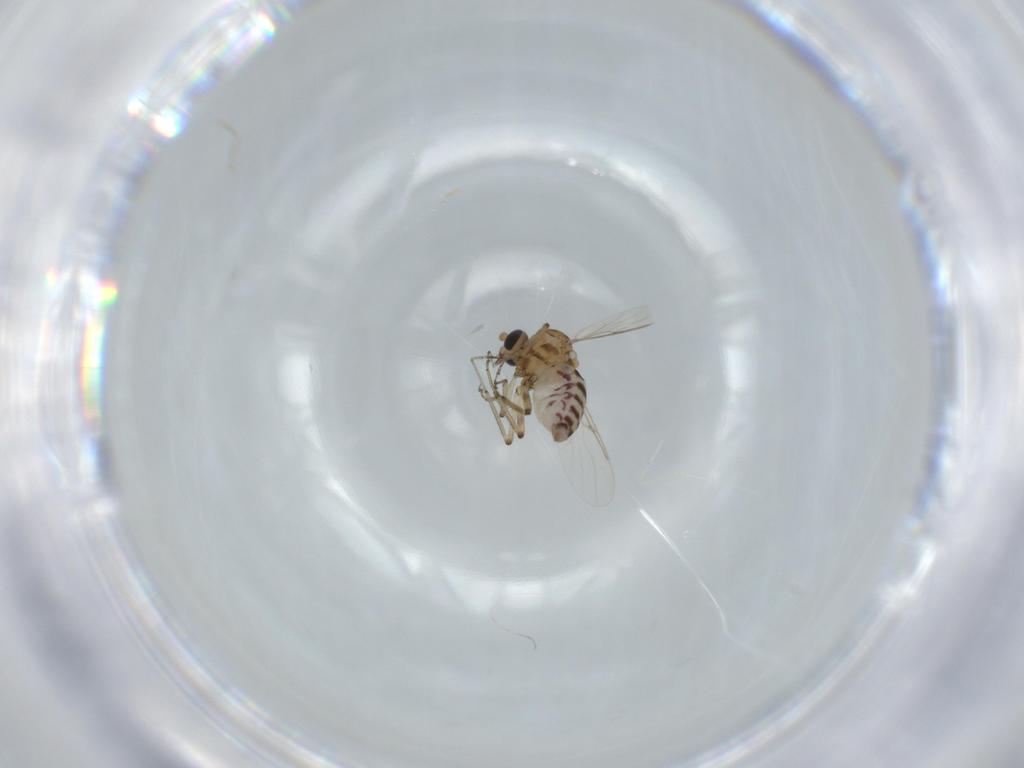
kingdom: Animalia
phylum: Arthropoda
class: Insecta
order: Diptera
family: Ceratopogonidae
